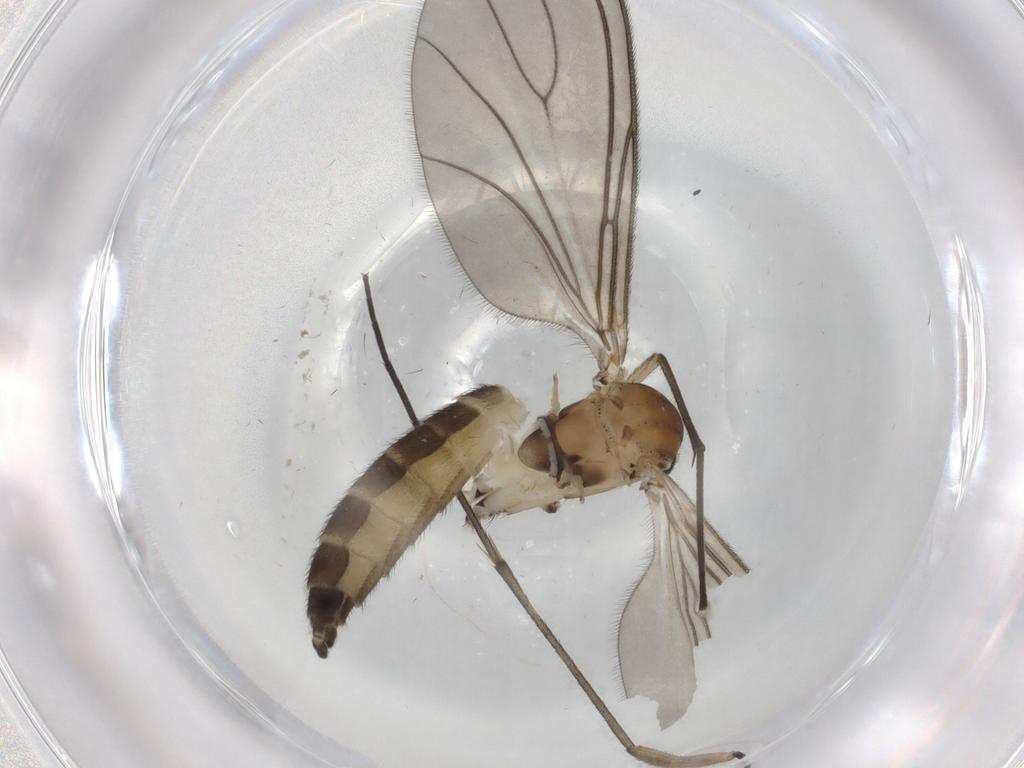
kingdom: Animalia
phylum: Arthropoda
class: Insecta
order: Diptera
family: Sciaridae
